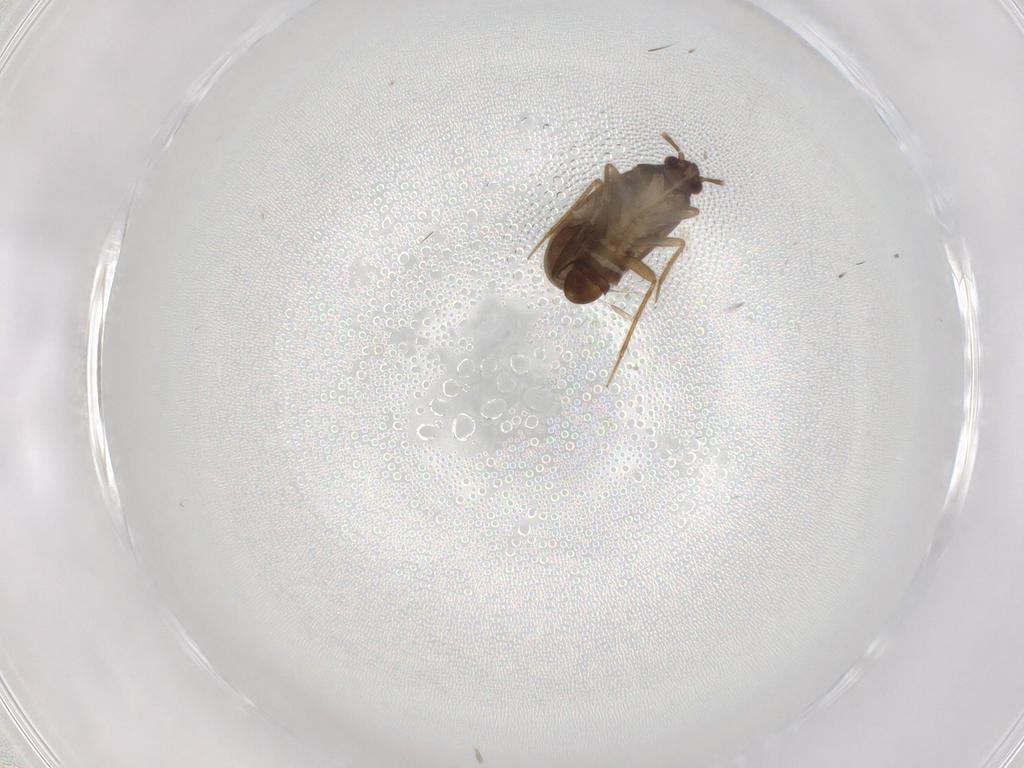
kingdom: Animalia
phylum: Arthropoda
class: Insecta
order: Hemiptera
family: Ceratocombidae
